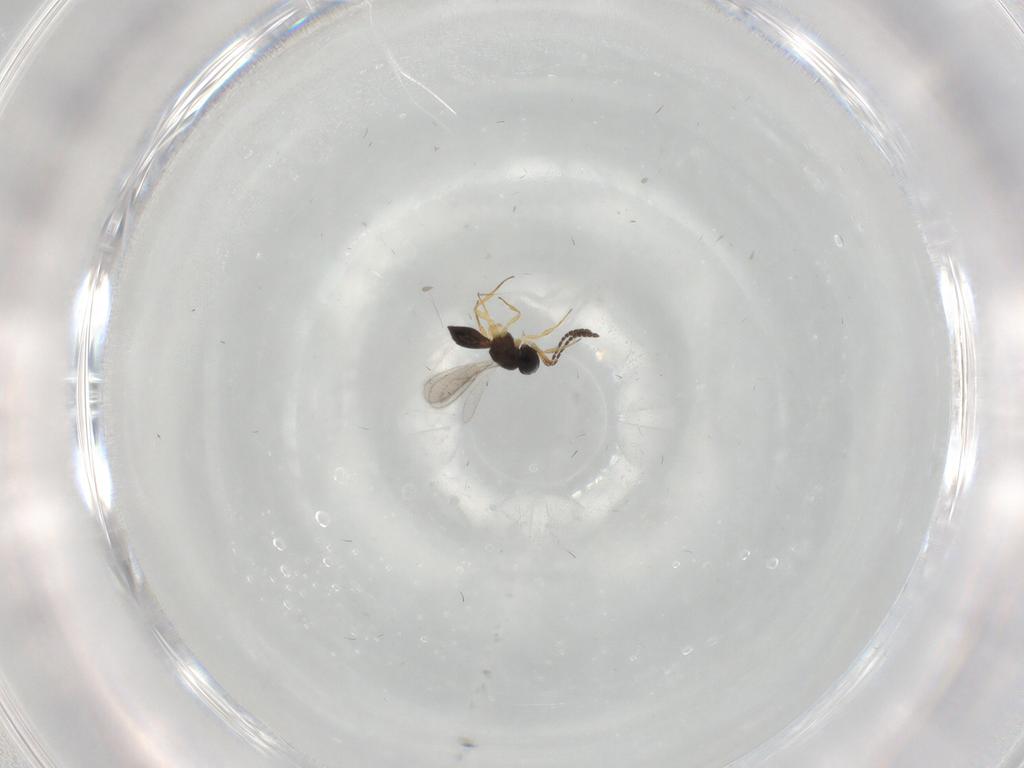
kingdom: Animalia
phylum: Arthropoda
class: Insecta
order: Hymenoptera
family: Scelionidae
